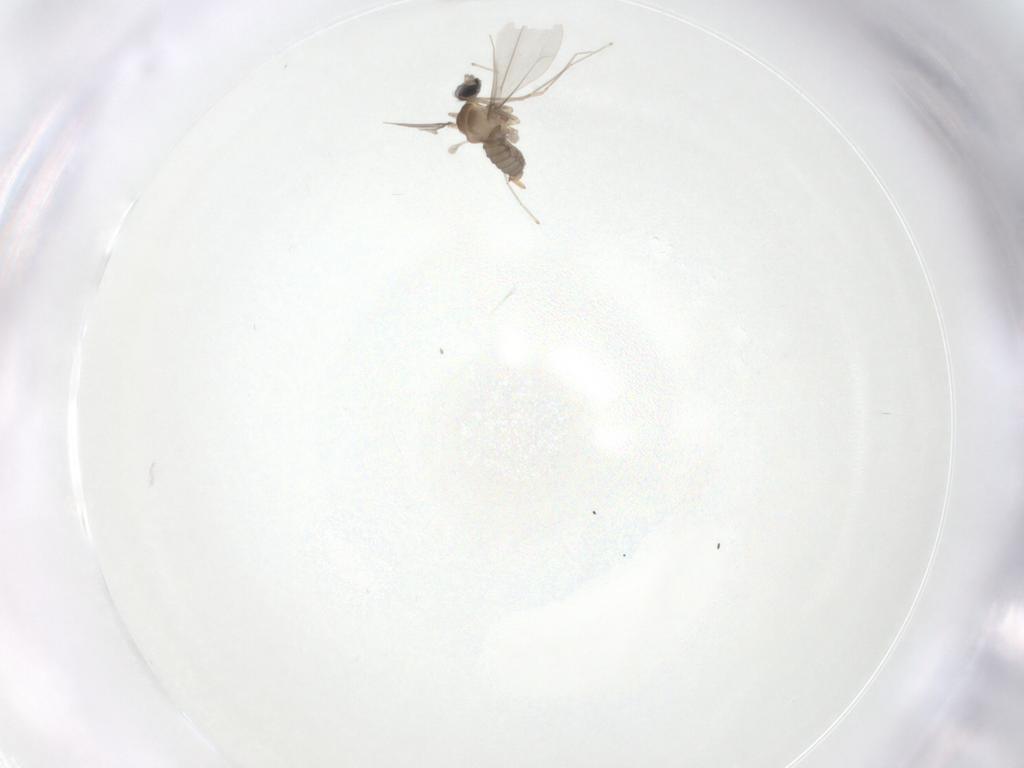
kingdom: Animalia
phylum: Arthropoda
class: Insecta
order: Diptera
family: Cecidomyiidae
